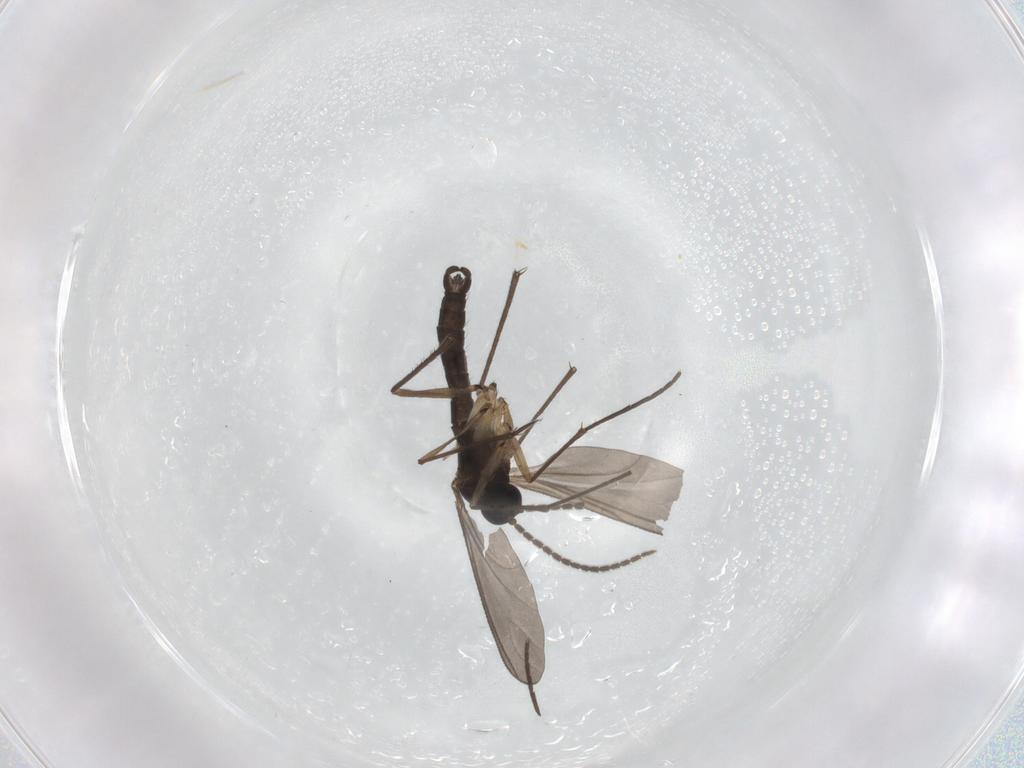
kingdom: Animalia
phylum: Arthropoda
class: Insecta
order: Diptera
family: Sciaridae
